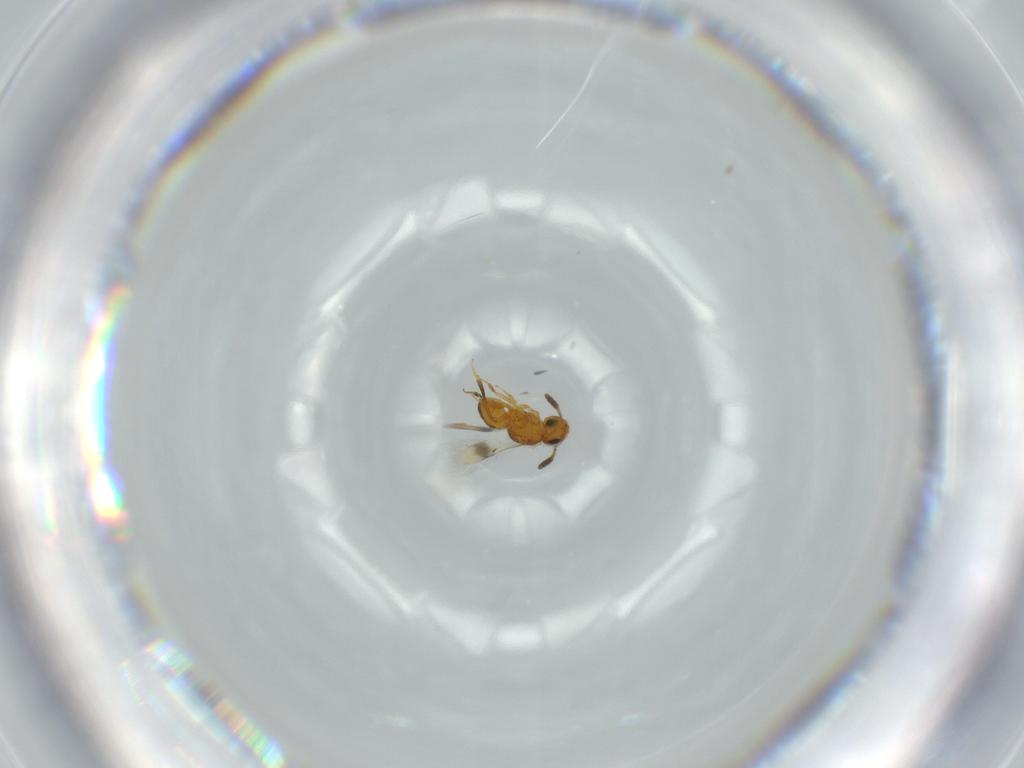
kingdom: Animalia
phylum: Arthropoda
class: Insecta
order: Hymenoptera
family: Scelionidae
